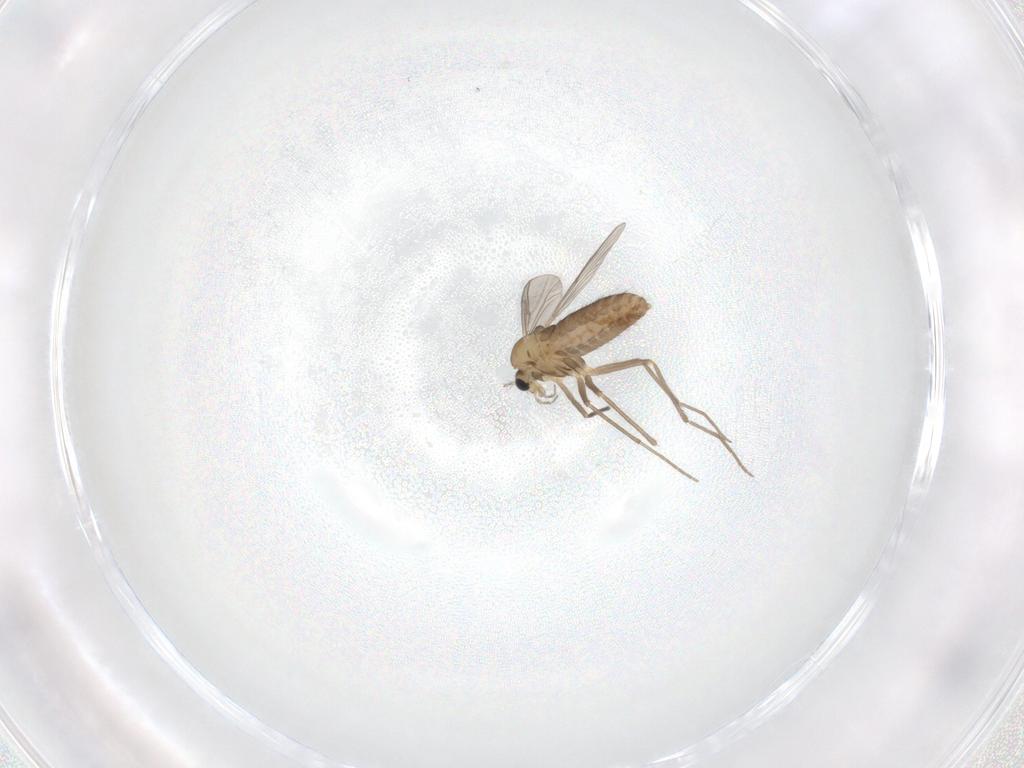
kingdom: Animalia
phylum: Arthropoda
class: Insecta
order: Diptera
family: Chironomidae
